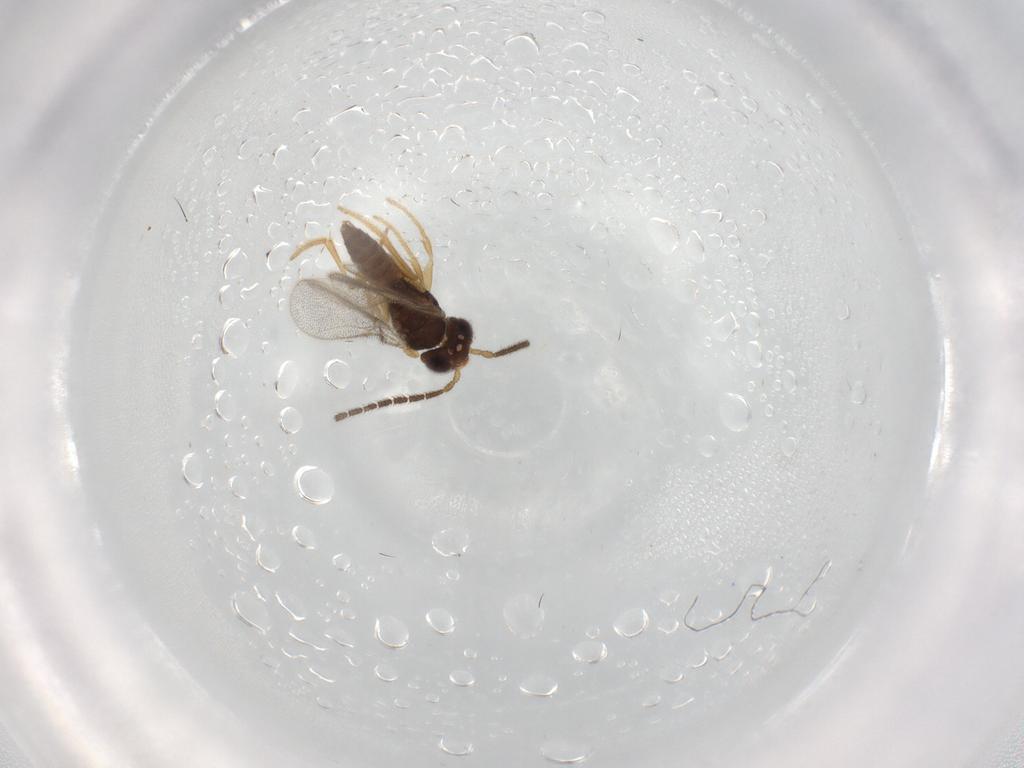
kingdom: Animalia
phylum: Arthropoda
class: Insecta
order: Hymenoptera
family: Dryinidae
